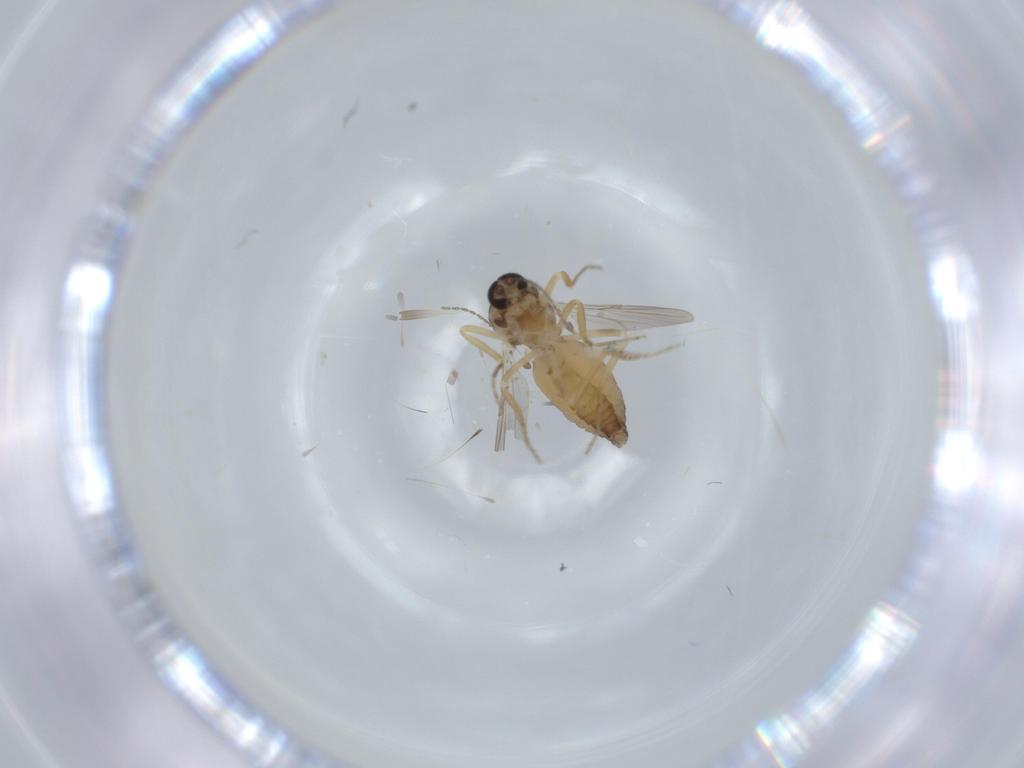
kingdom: Animalia
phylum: Arthropoda
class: Insecta
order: Diptera
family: Ceratopogonidae
